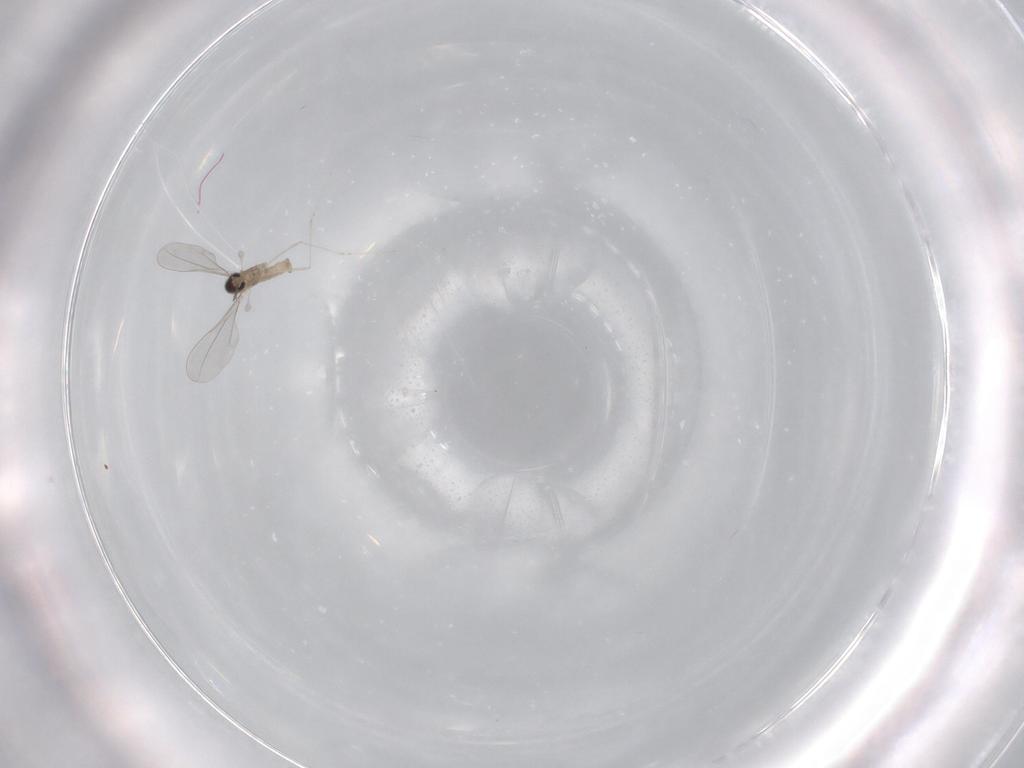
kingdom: Animalia
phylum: Arthropoda
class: Insecta
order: Diptera
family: Cecidomyiidae
